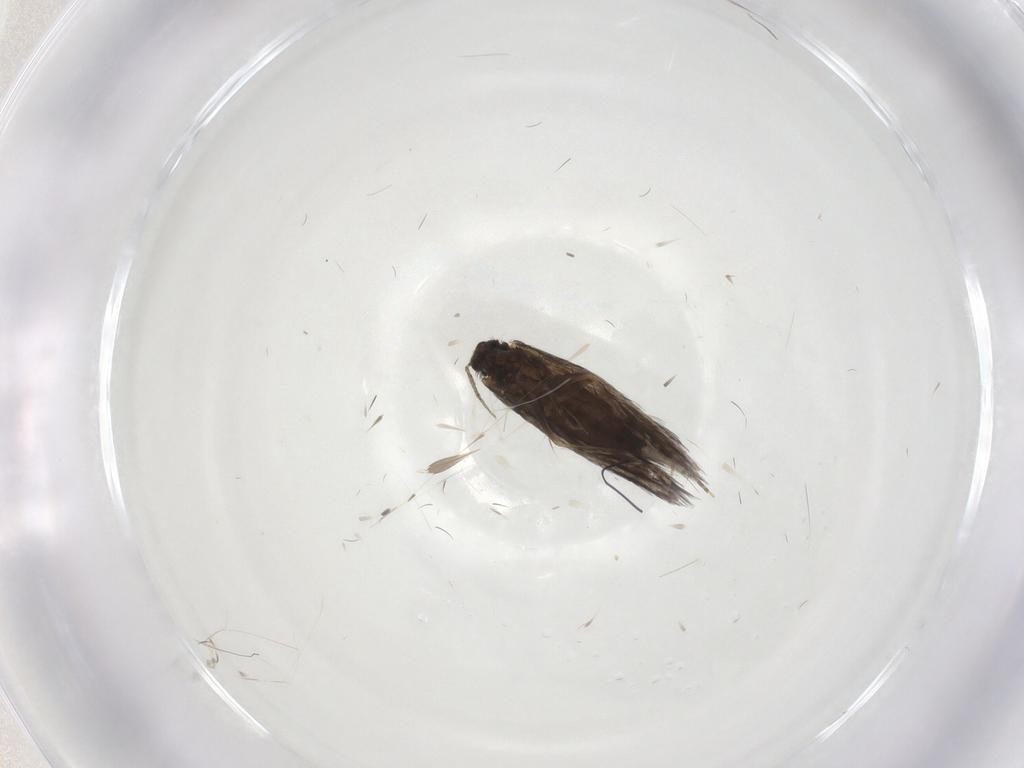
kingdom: Animalia
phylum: Arthropoda
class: Insecta
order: Trichoptera
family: Hydroptilidae
